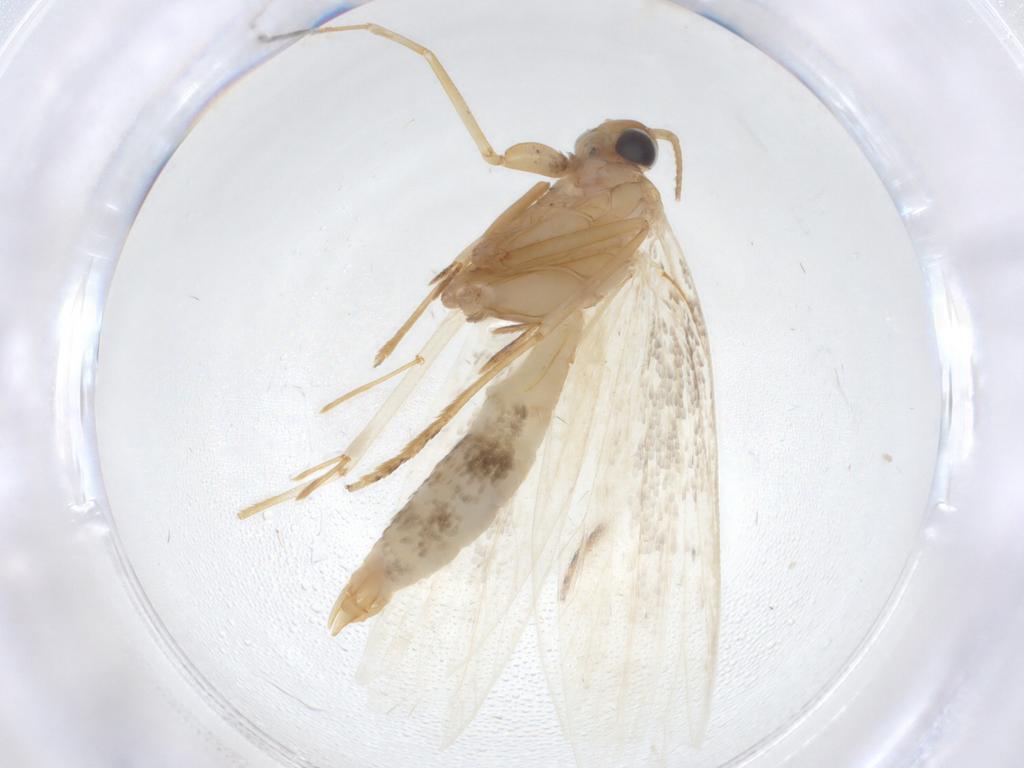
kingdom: Animalia
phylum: Arthropoda
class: Insecta
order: Lepidoptera
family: Oecophoridae
